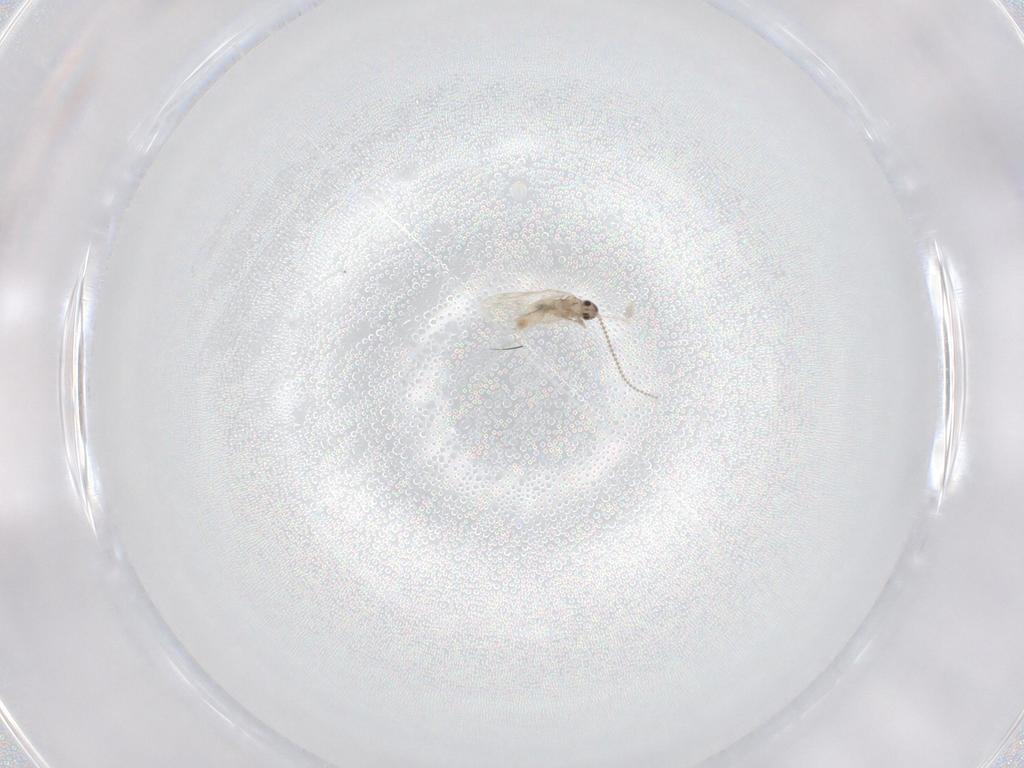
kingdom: Animalia
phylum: Arthropoda
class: Insecta
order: Diptera
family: Cecidomyiidae
